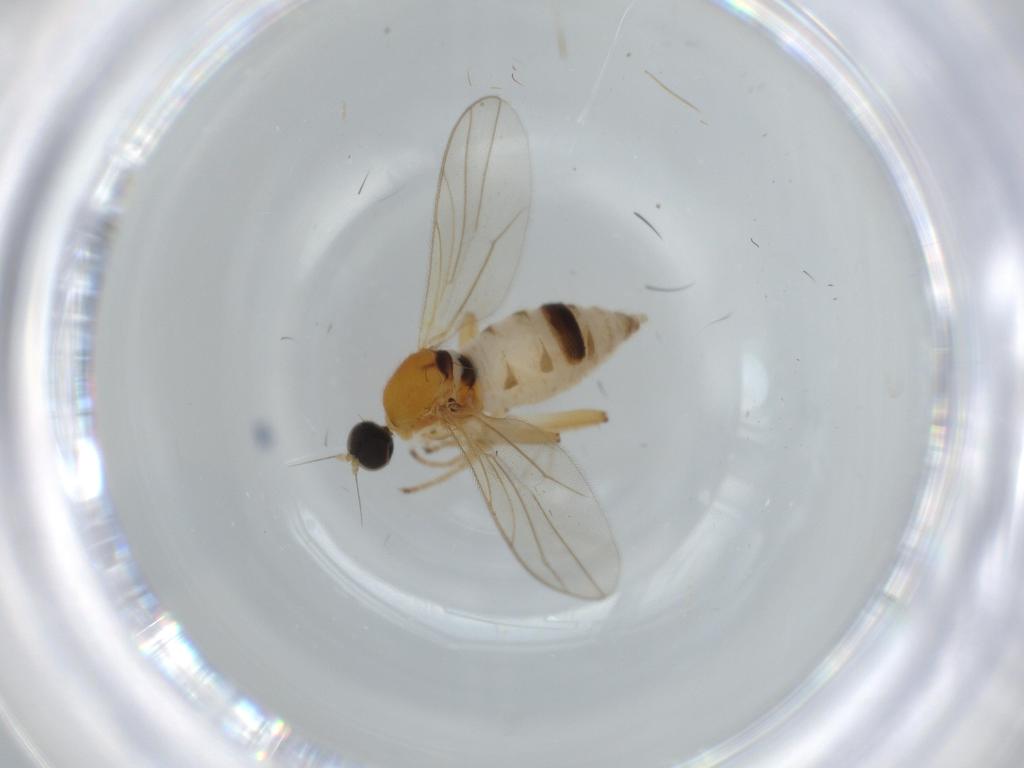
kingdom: Animalia
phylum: Arthropoda
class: Insecta
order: Diptera
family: Hybotidae
